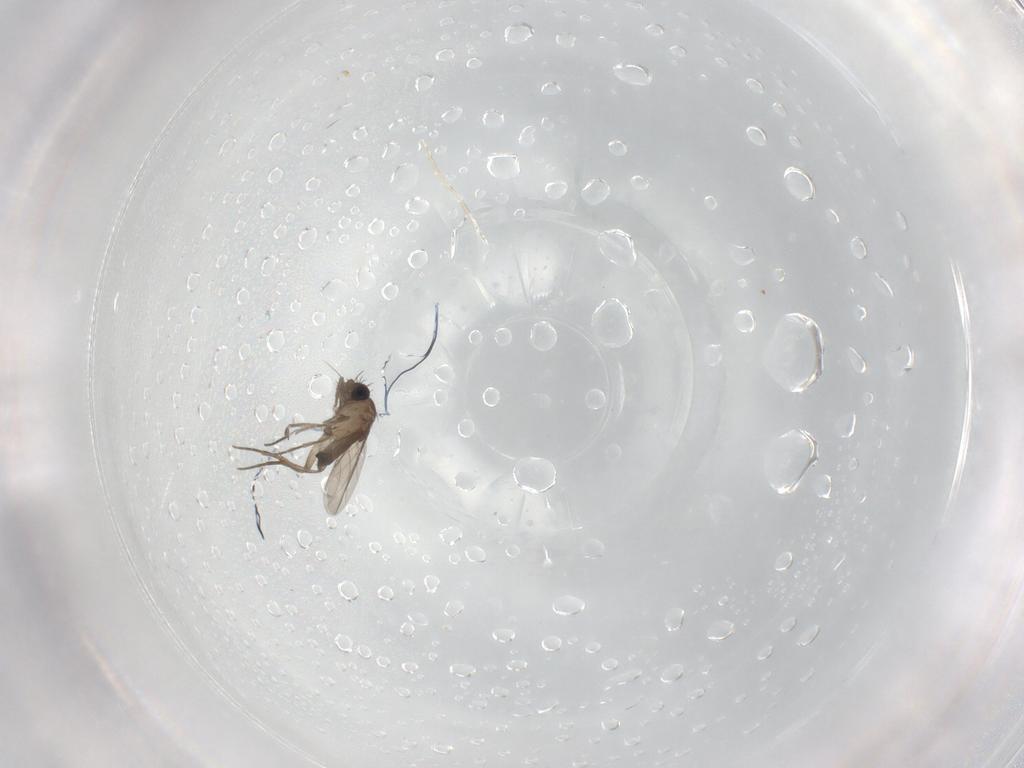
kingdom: Animalia
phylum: Arthropoda
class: Insecta
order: Diptera
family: Phoridae
